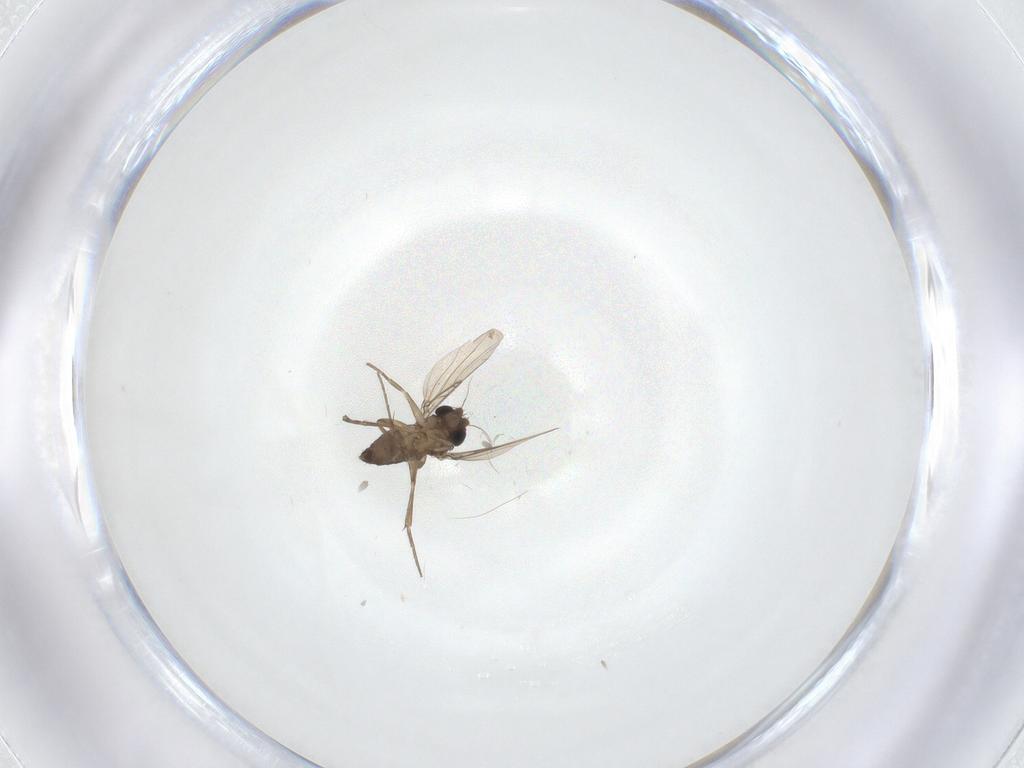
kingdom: Animalia
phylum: Arthropoda
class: Insecta
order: Diptera
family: Phoridae
